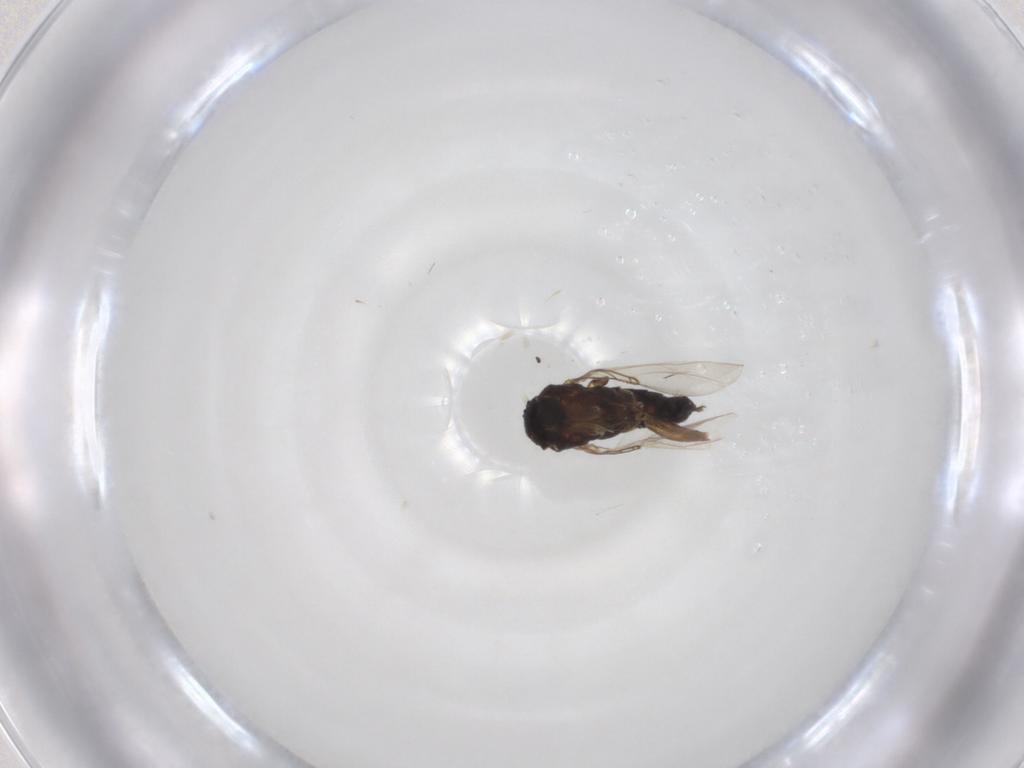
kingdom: Animalia
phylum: Arthropoda
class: Insecta
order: Diptera
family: Phoridae
